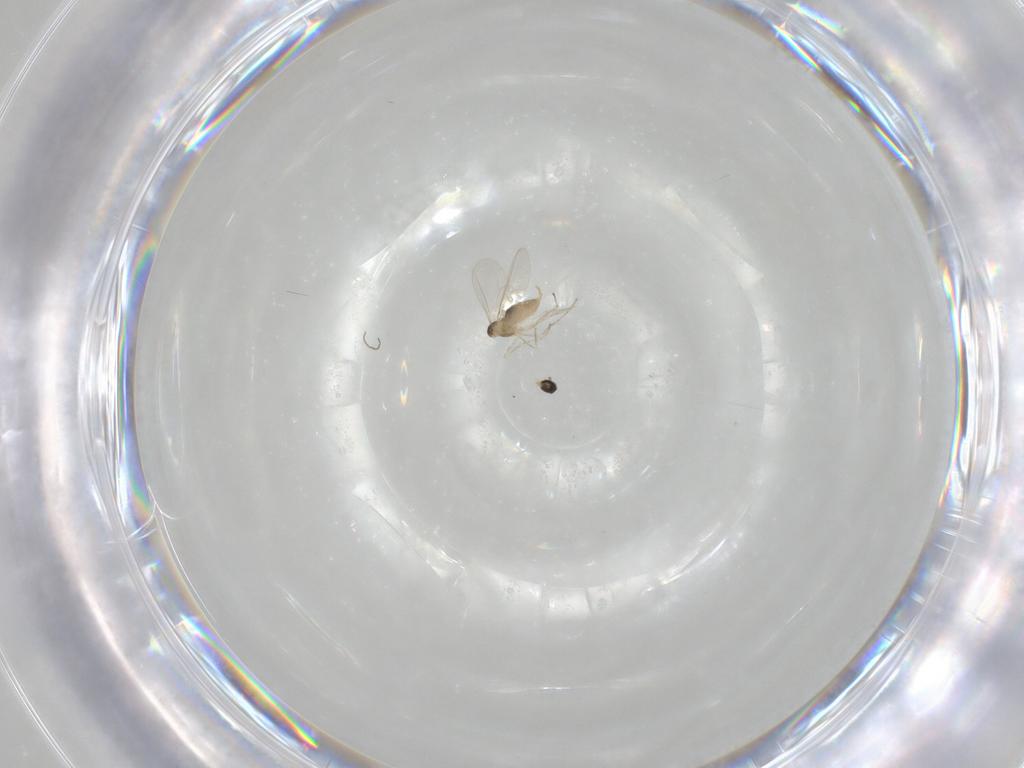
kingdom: Animalia
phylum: Arthropoda
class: Insecta
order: Diptera
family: Cecidomyiidae
